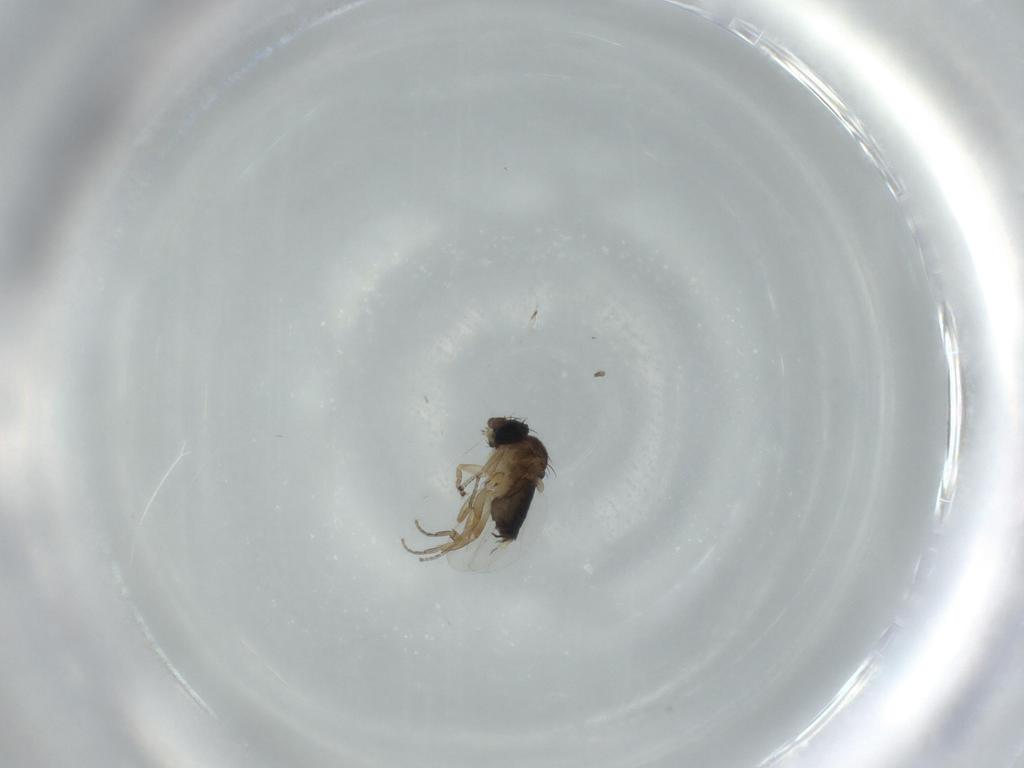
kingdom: Animalia
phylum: Arthropoda
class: Insecta
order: Diptera
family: Phoridae
